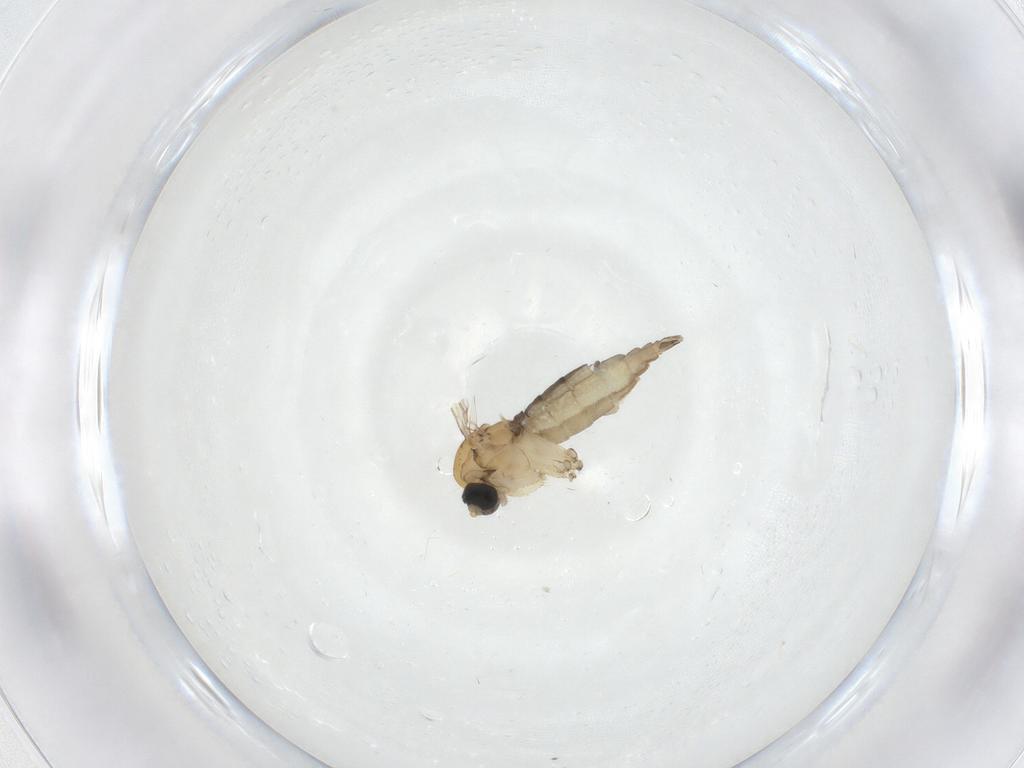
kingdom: Animalia
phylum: Arthropoda
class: Insecta
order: Diptera
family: Sciaridae
